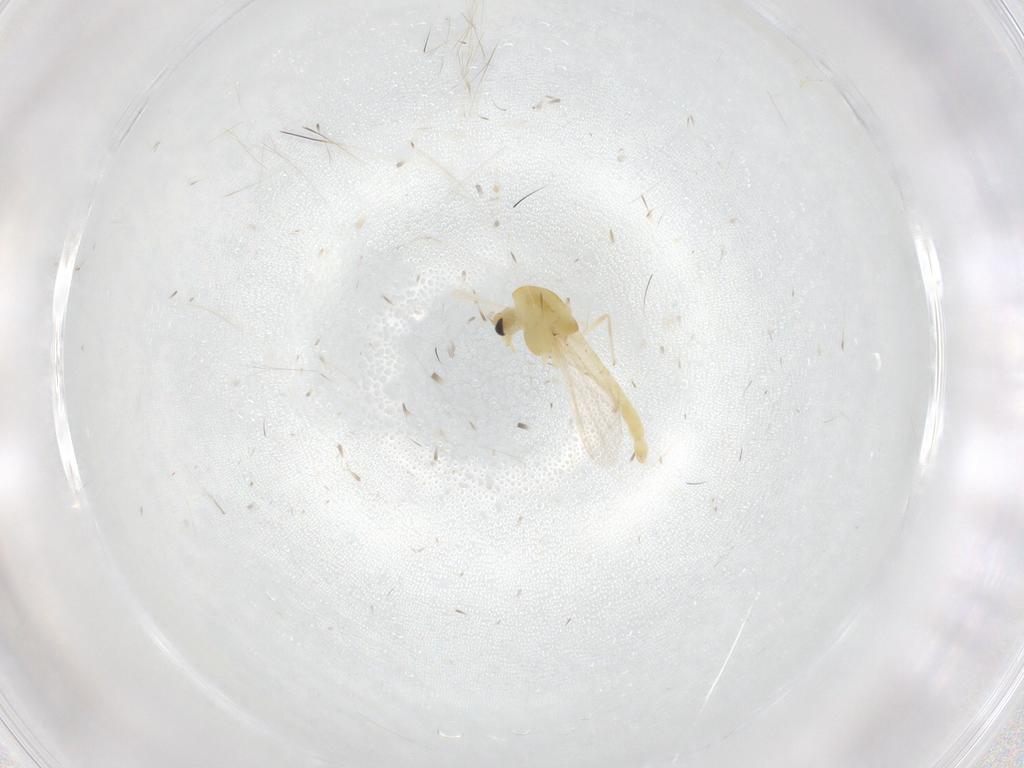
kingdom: Animalia
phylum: Arthropoda
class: Insecta
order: Diptera
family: Chironomidae
